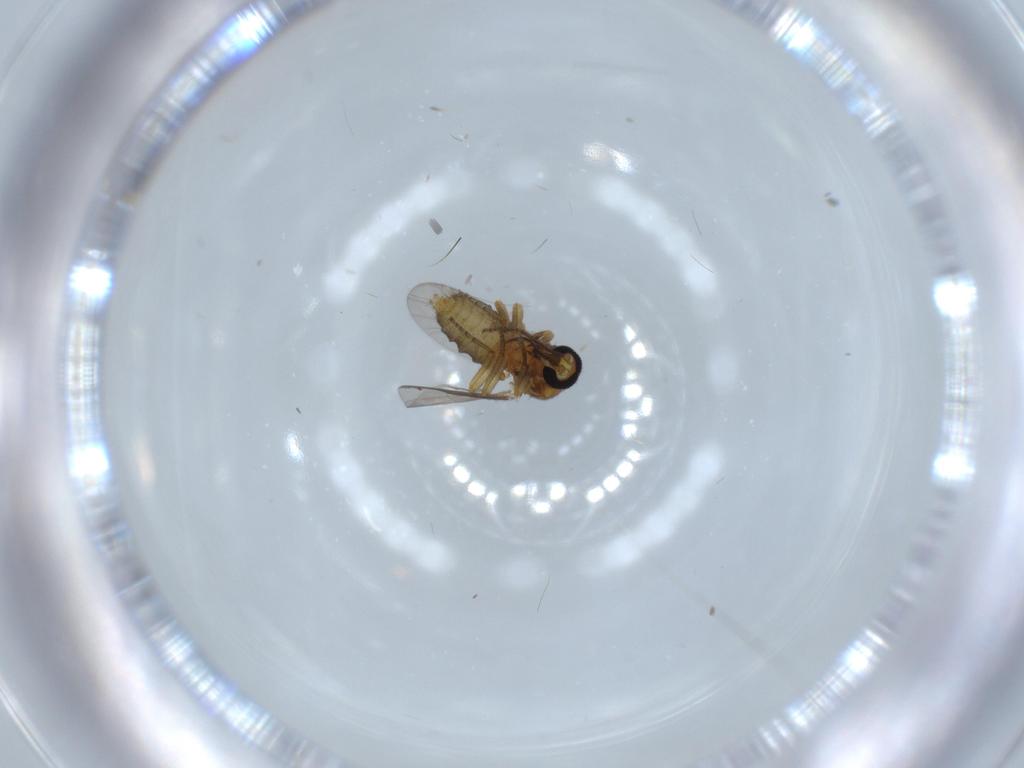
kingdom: Animalia
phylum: Arthropoda
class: Insecta
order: Diptera
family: Ceratopogonidae
